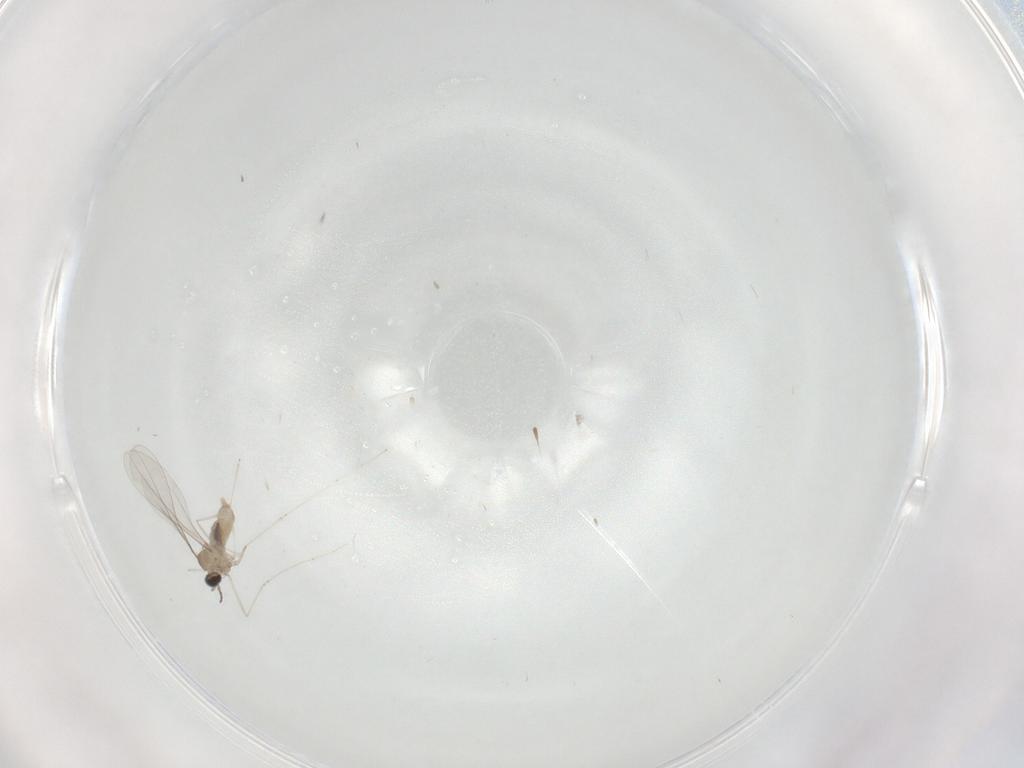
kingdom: Animalia
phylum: Arthropoda
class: Insecta
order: Diptera
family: Cecidomyiidae
